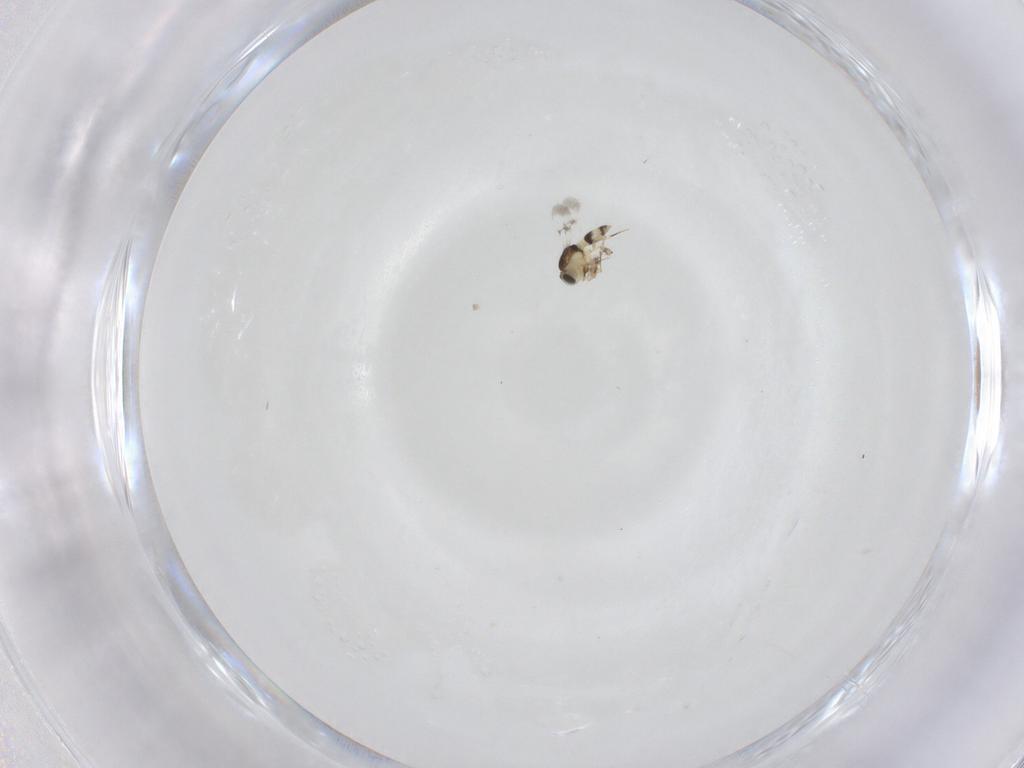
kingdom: Animalia
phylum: Arthropoda
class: Insecta
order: Hymenoptera
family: Scelionidae
